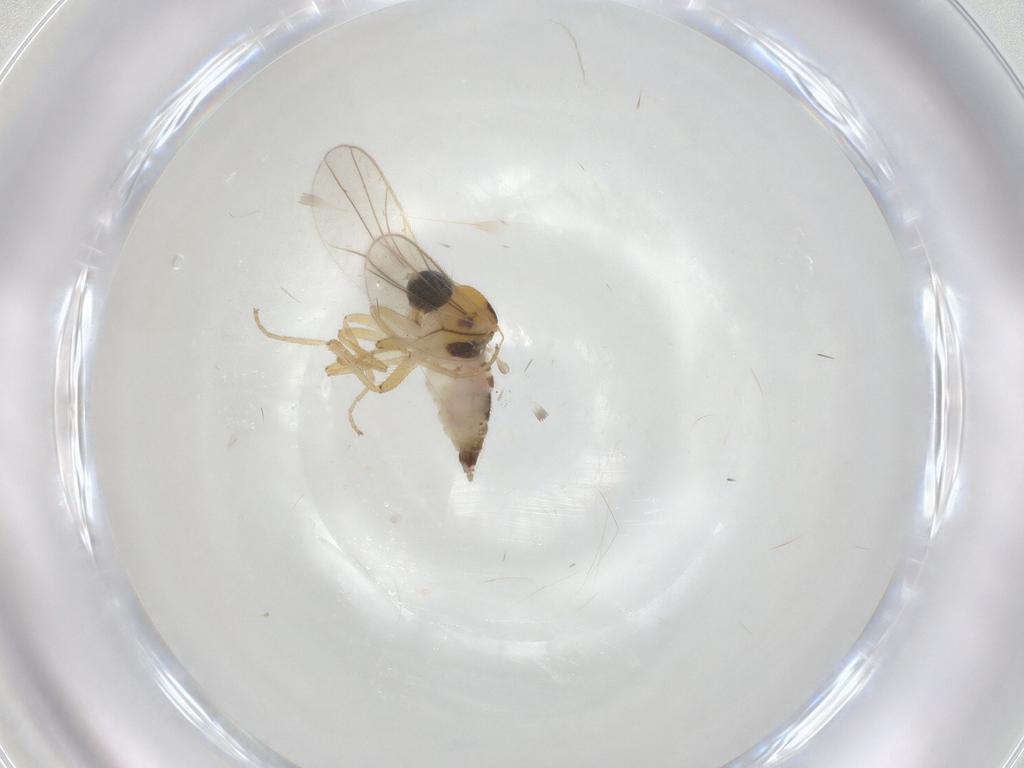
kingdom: Animalia
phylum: Arthropoda
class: Insecta
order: Diptera
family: Hybotidae
